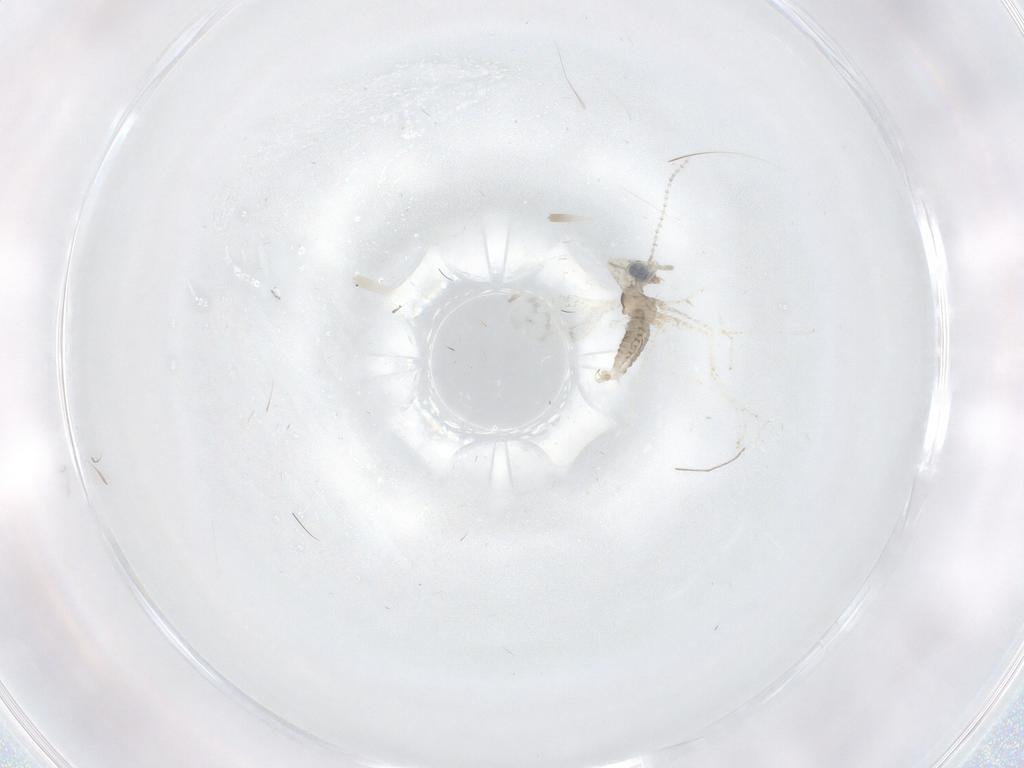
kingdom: Animalia
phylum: Arthropoda
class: Insecta
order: Diptera
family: Cecidomyiidae
